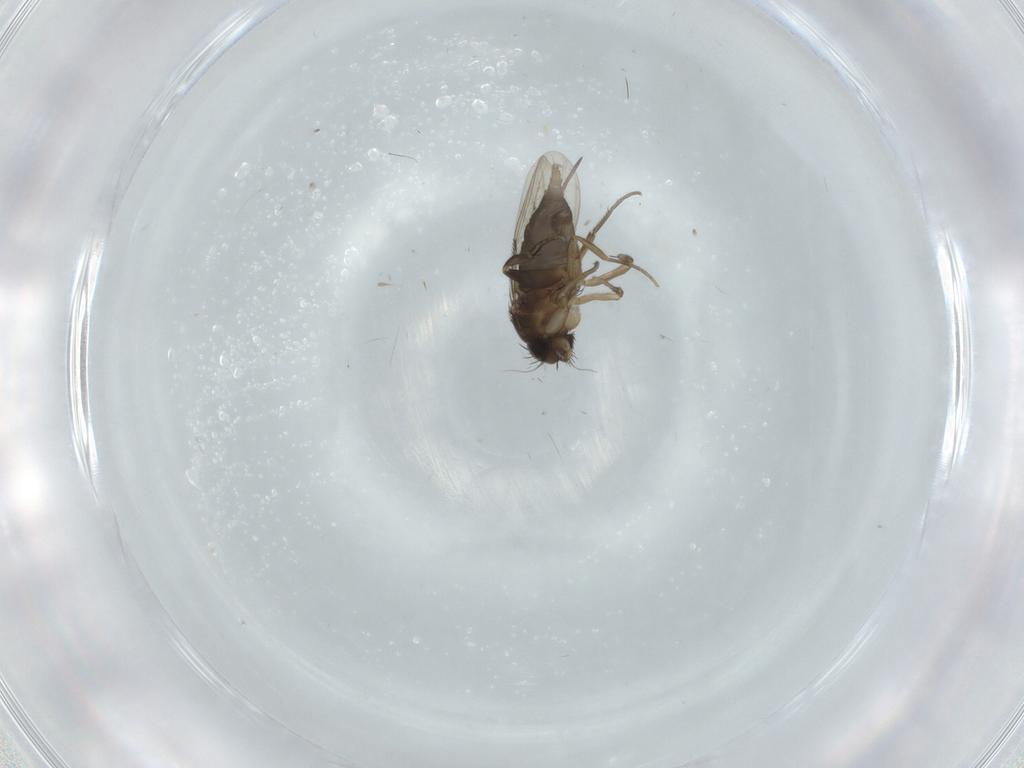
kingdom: Animalia
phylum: Arthropoda
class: Insecta
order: Diptera
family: Phoridae
